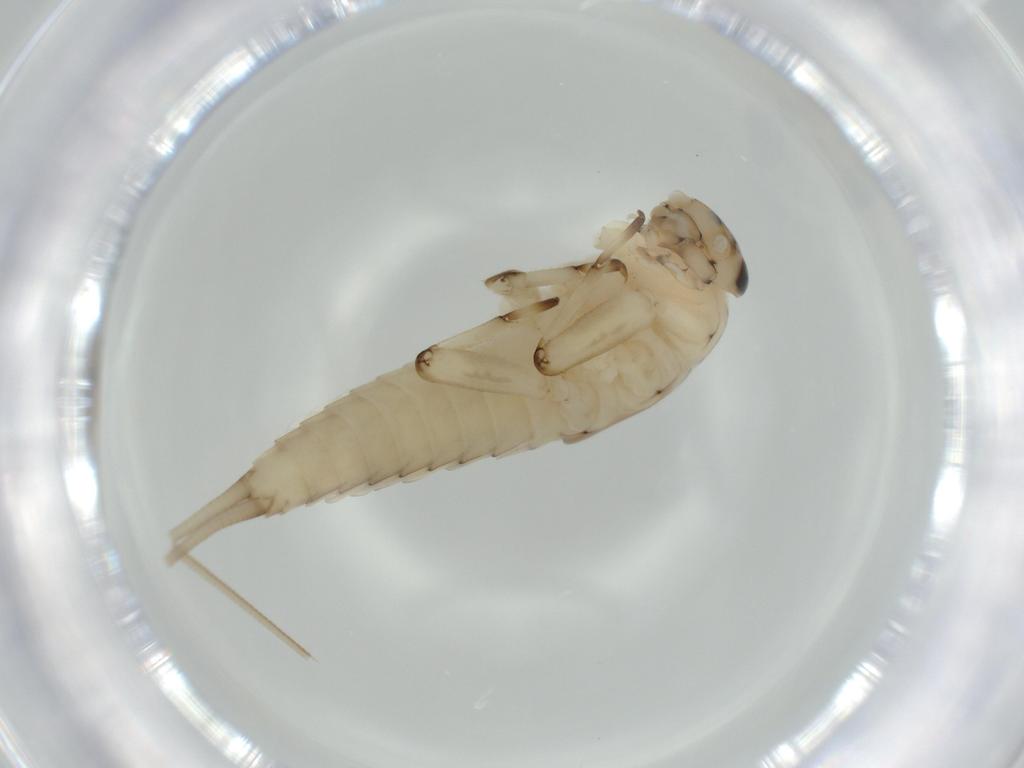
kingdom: Animalia
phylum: Arthropoda
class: Insecta
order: Ephemeroptera
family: Baetidae
